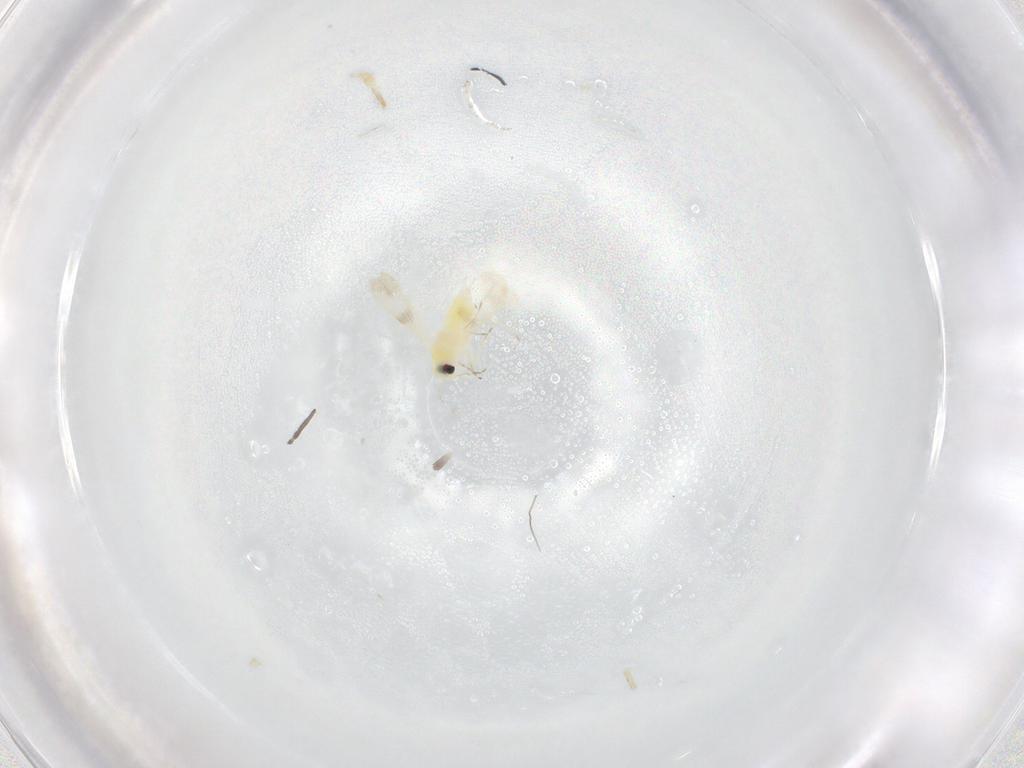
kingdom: Animalia
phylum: Arthropoda
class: Insecta
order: Hemiptera
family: Aleyrodidae
